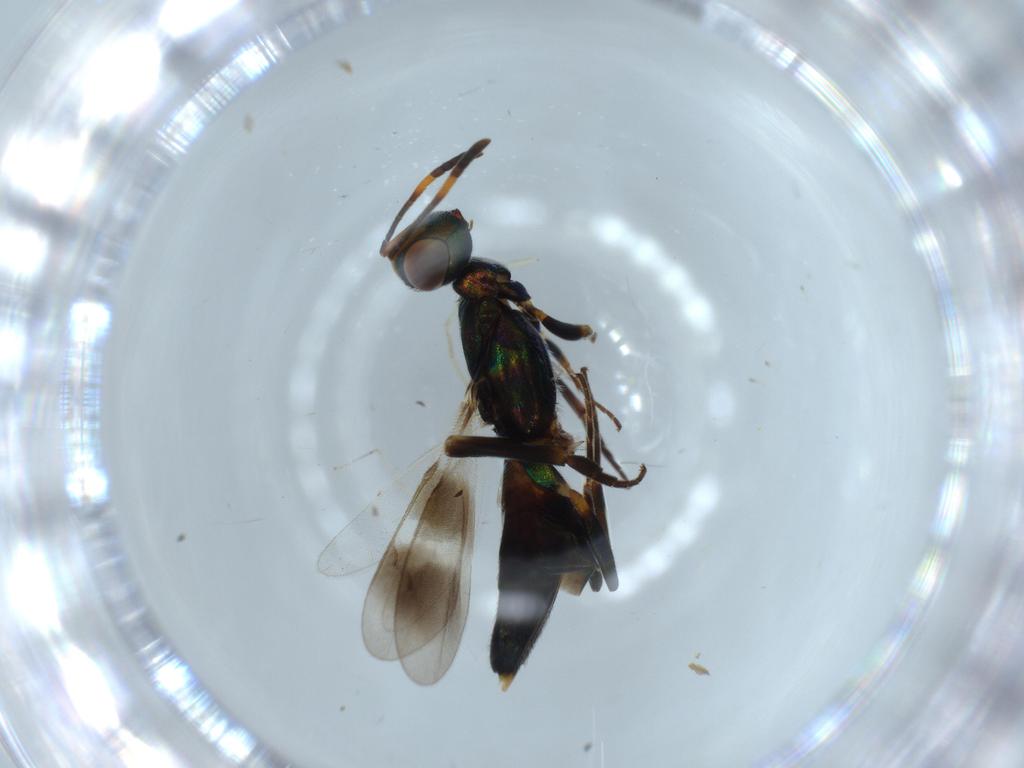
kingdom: Animalia
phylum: Arthropoda
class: Insecta
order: Hymenoptera
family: Eupelmidae
